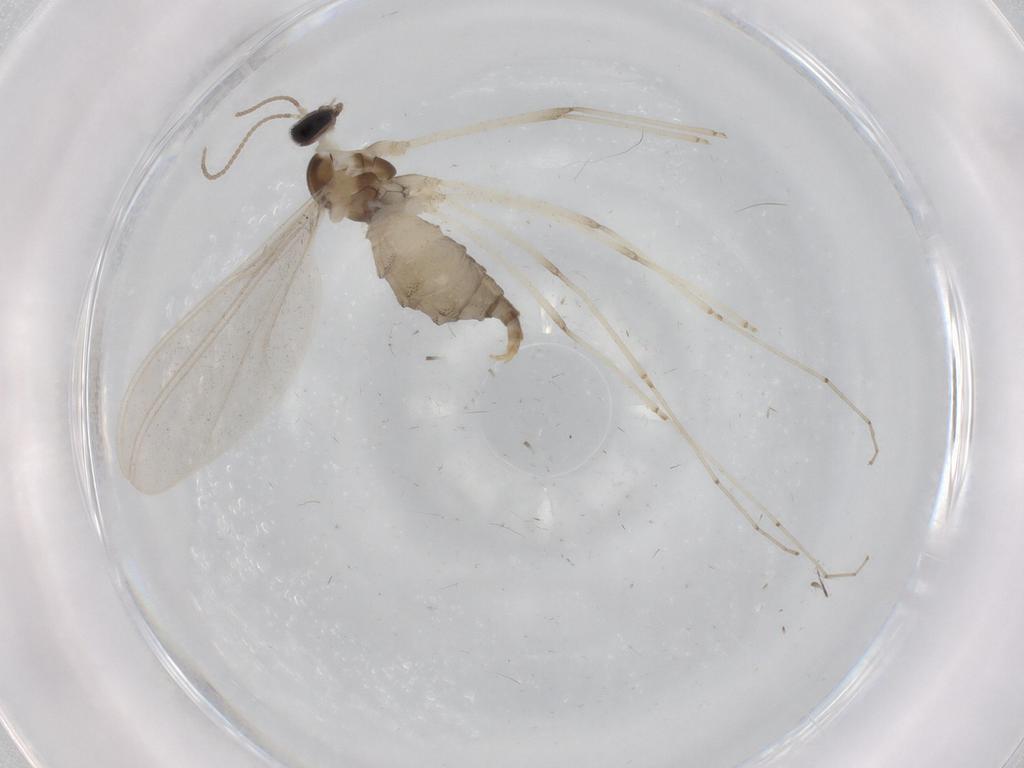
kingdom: Animalia
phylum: Arthropoda
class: Insecta
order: Diptera
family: Cecidomyiidae
